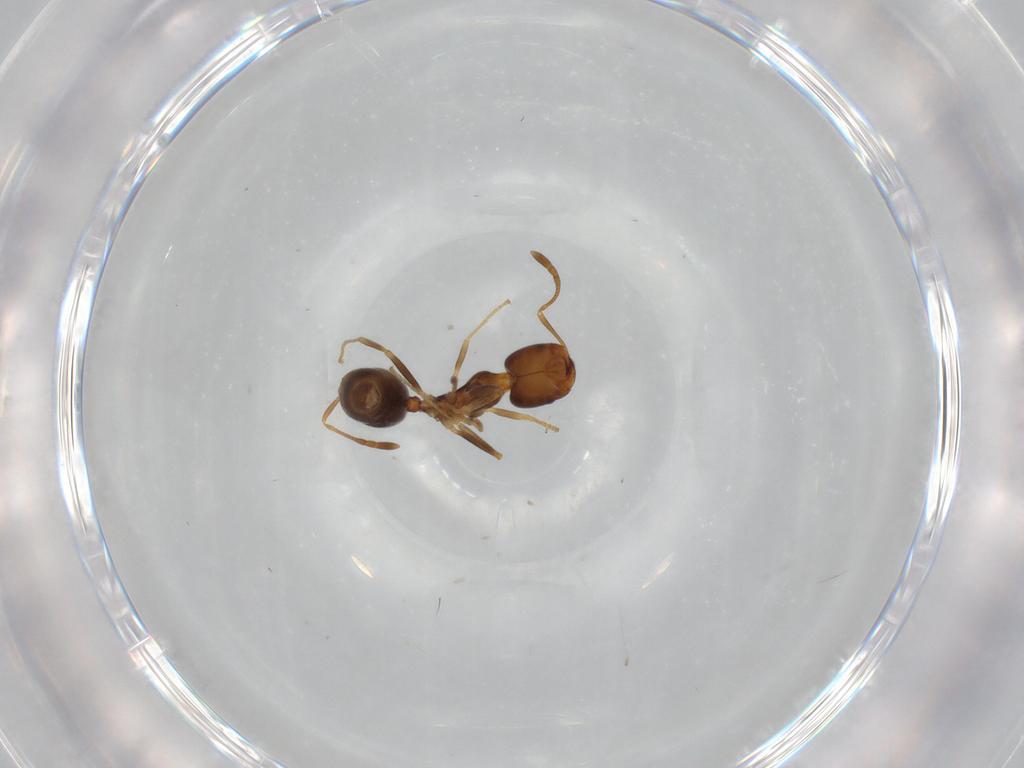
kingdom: Animalia
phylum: Arthropoda
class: Insecta
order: Hymenoptera
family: Formicidae
